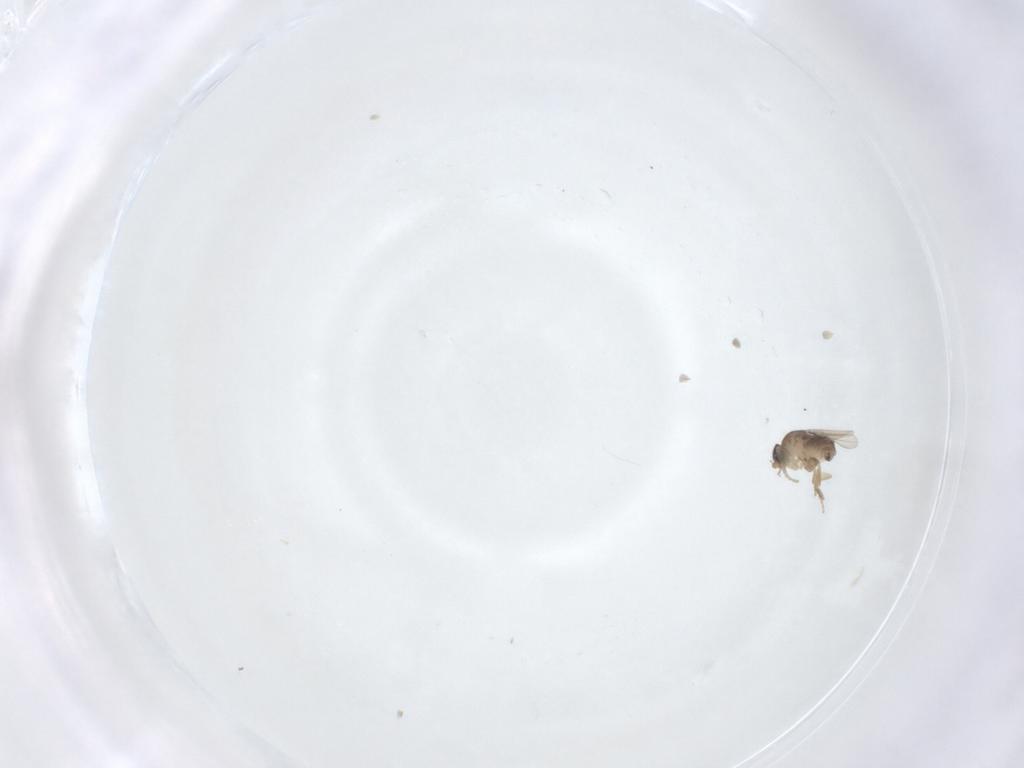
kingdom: Animalia
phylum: Arthropoda
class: Insecta
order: Diptera
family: Phoridae
